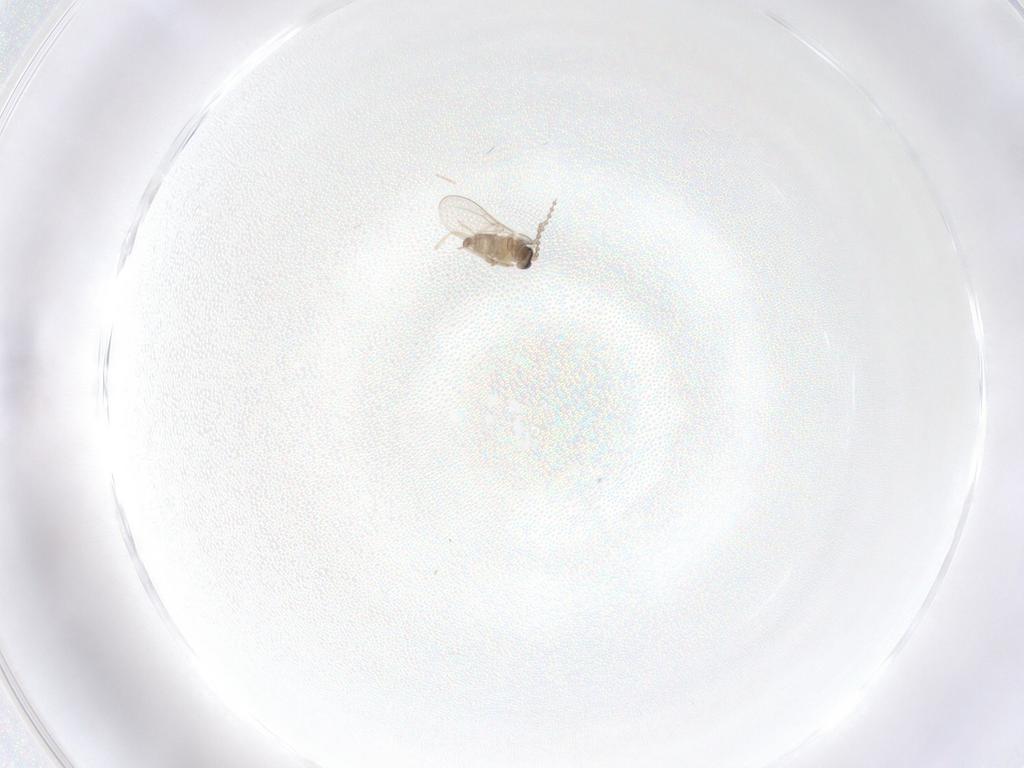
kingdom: Animalia
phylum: Arthropoda
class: Insecta
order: Diptera
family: Cecidomyiidae
